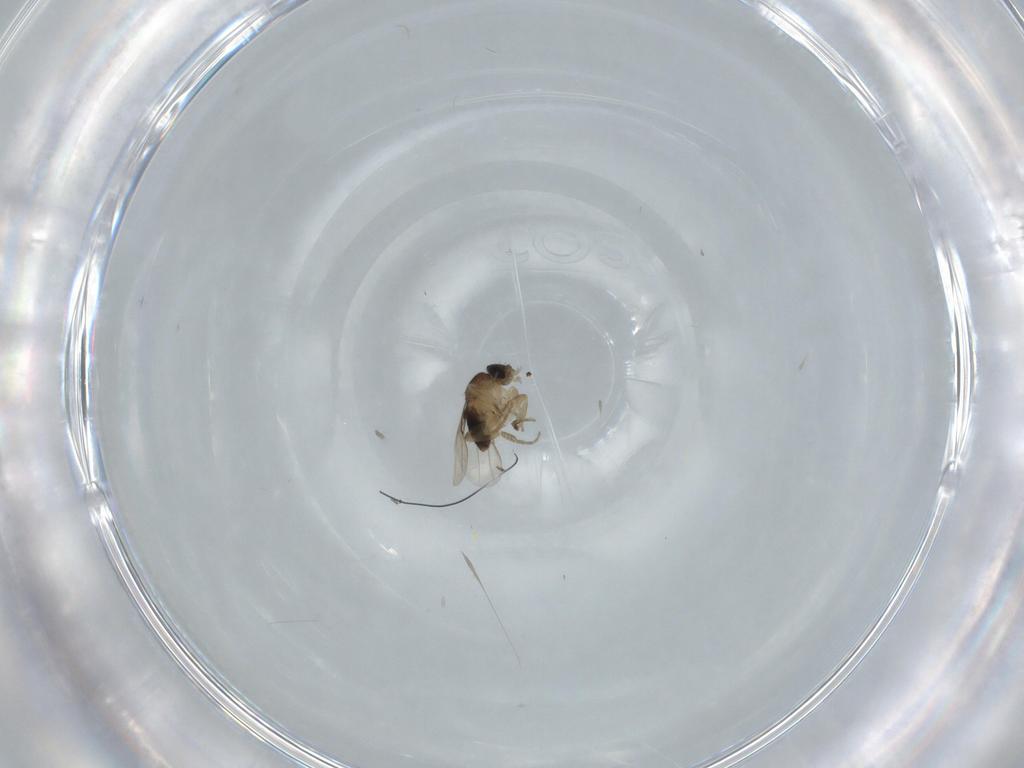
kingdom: Animalia
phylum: Arthropoda
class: Insecta
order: Diptera
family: Phoridae
